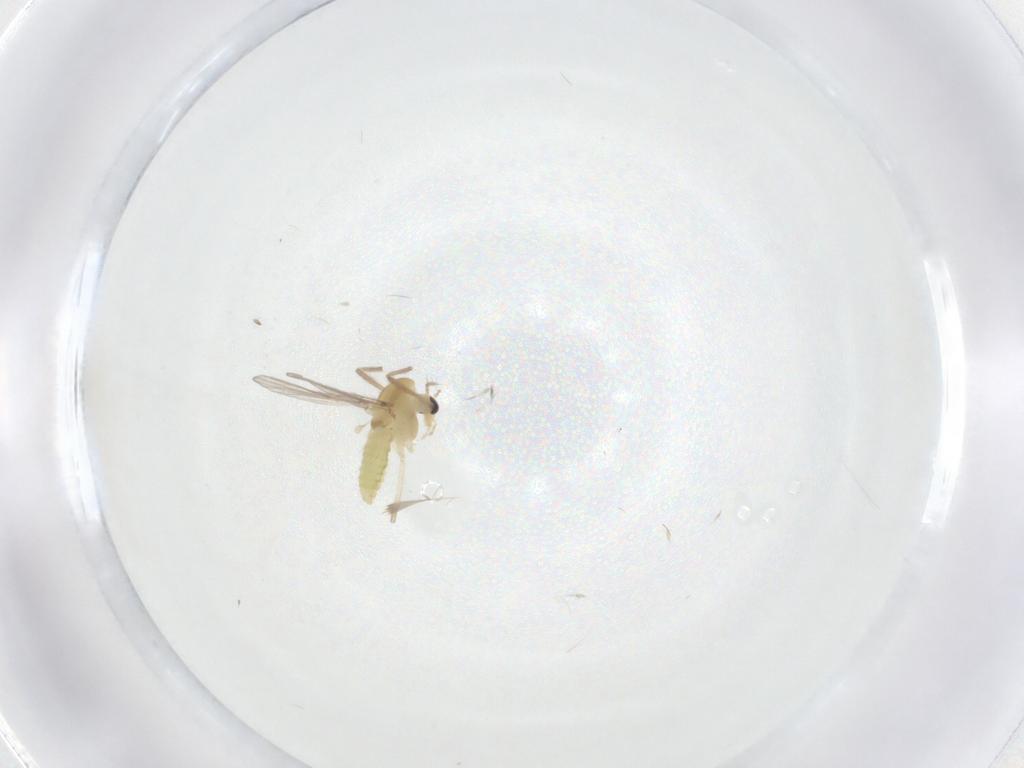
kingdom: Animalia
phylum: Arthropoda
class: Insecta
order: Diptera
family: Chironomidae
